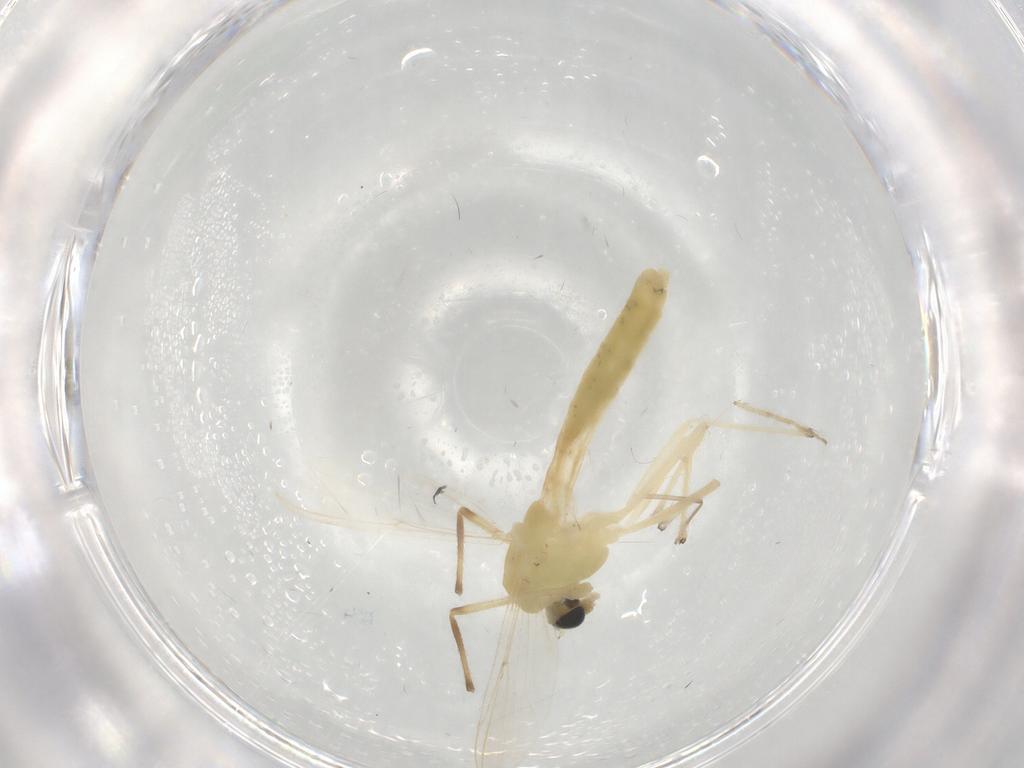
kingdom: Animalia
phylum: Arthropoda
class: Insecta
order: Diptera
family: Chironomidae
